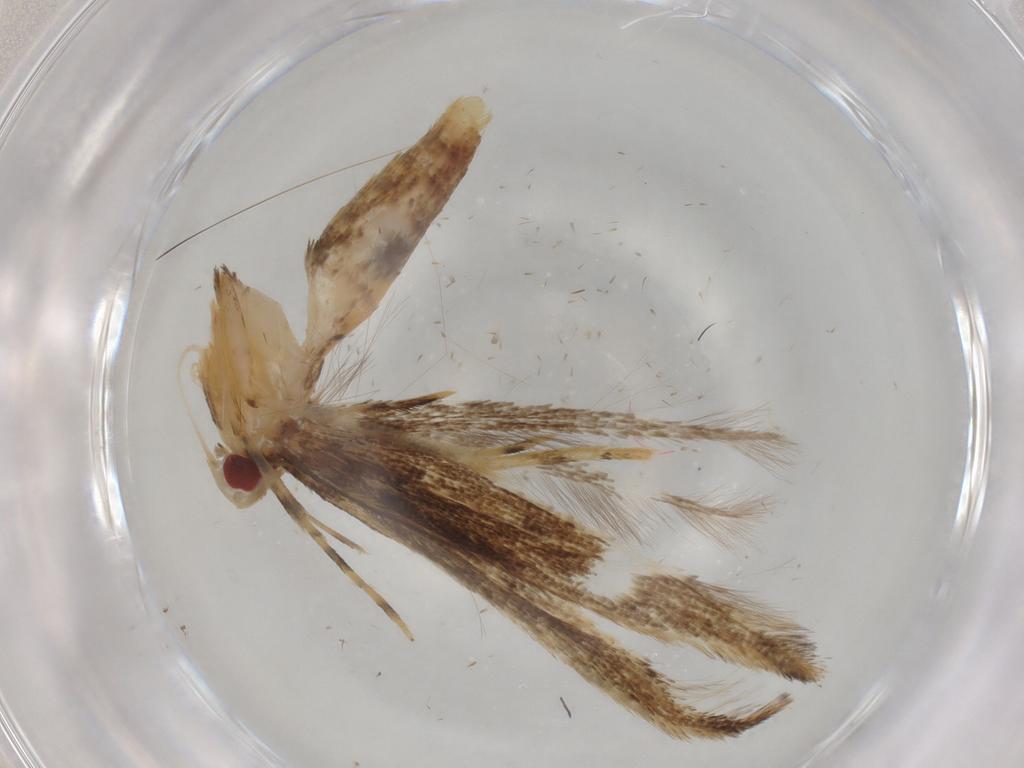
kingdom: Animalia
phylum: Arthropoda
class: Insecta
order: Lepidoptera
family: Cosmopterigidae
